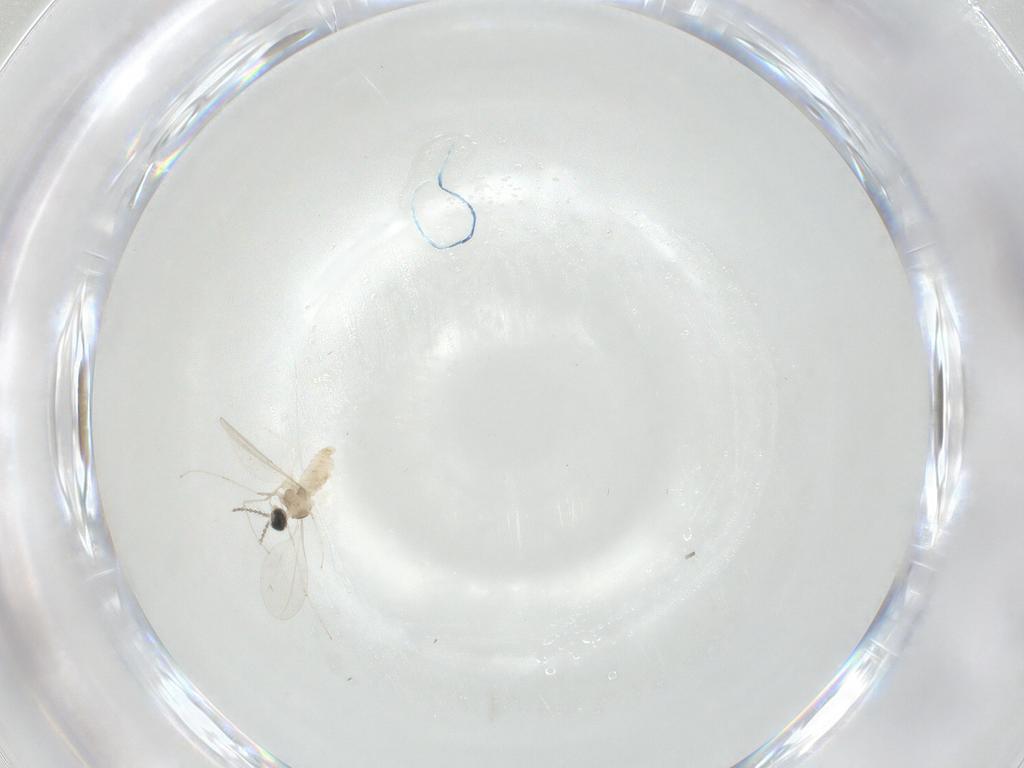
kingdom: Animalia
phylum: Arthropoda
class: Insecta
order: Diptera
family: Cecidomyiidae
